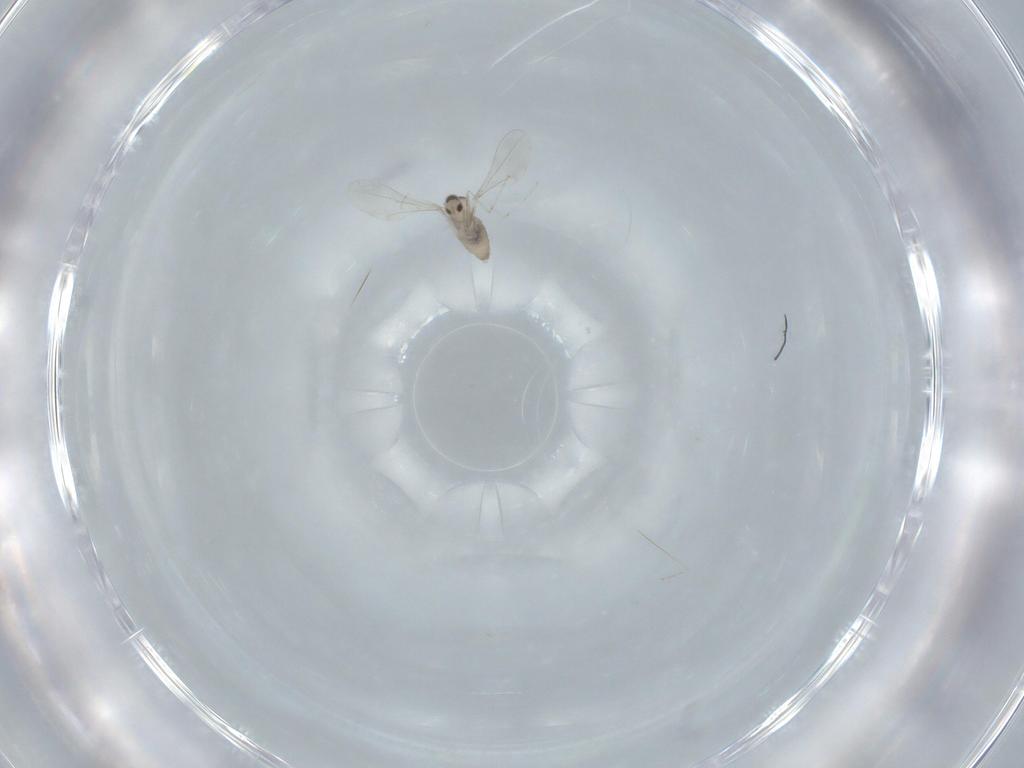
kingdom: Animalia
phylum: Arthropoda
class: Insecta
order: Diptera
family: Cecidomyiidae
